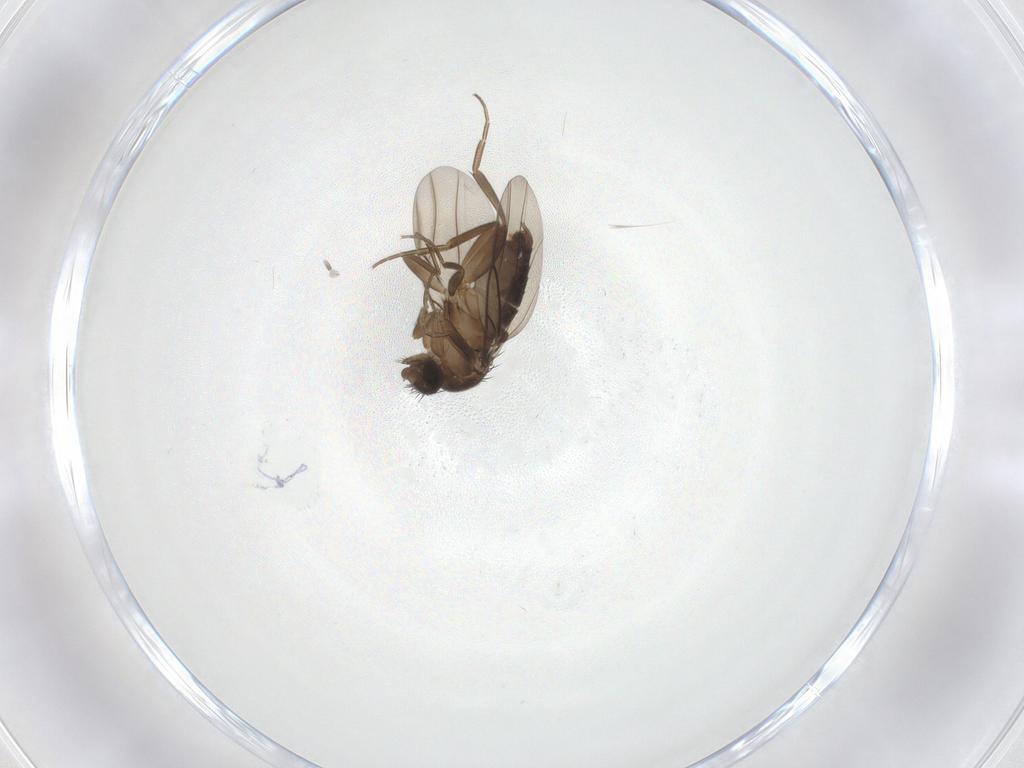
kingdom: Animalia
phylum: Arthropoda
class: Insecta
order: Diptera
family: Phoridae
